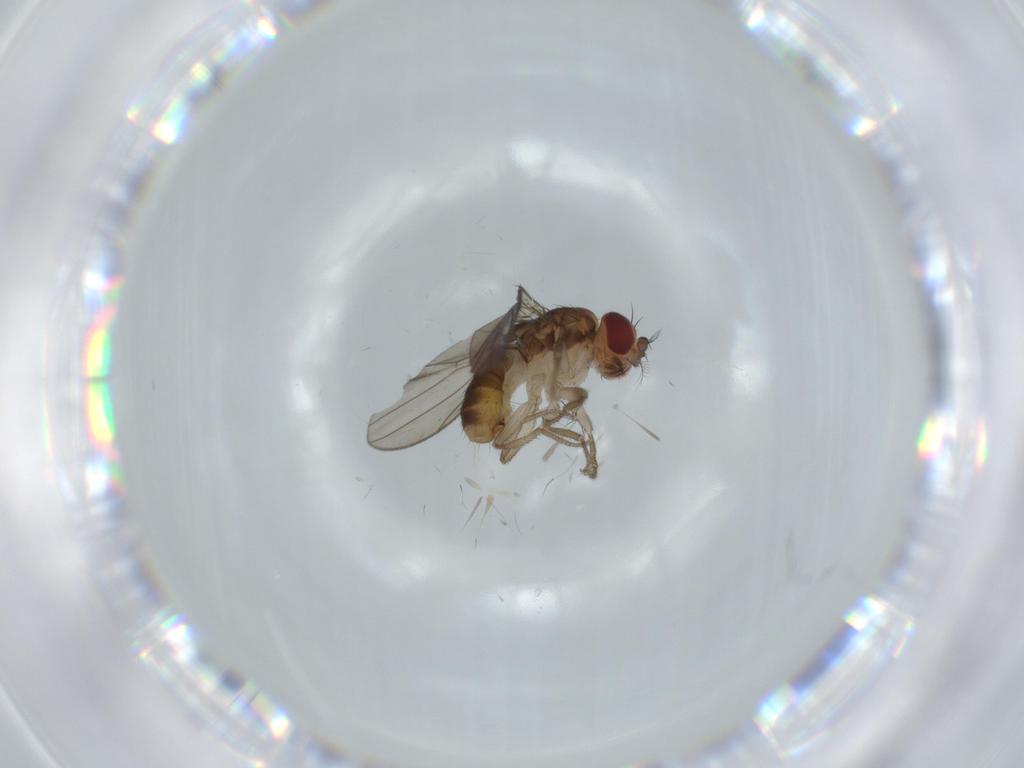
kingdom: Animalia
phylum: Arthropoda
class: Insecta
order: Diptera
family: Drosophilidae
